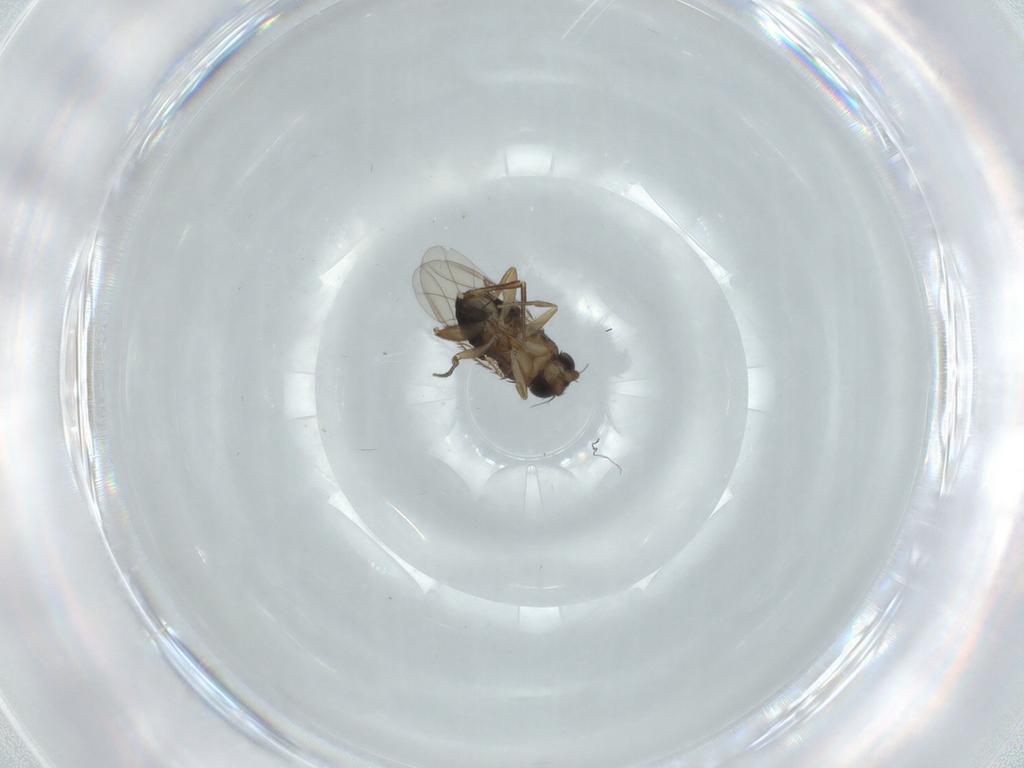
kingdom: Animalia
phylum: Arthropoda
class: Insecta
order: Diptera
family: Phoridae
